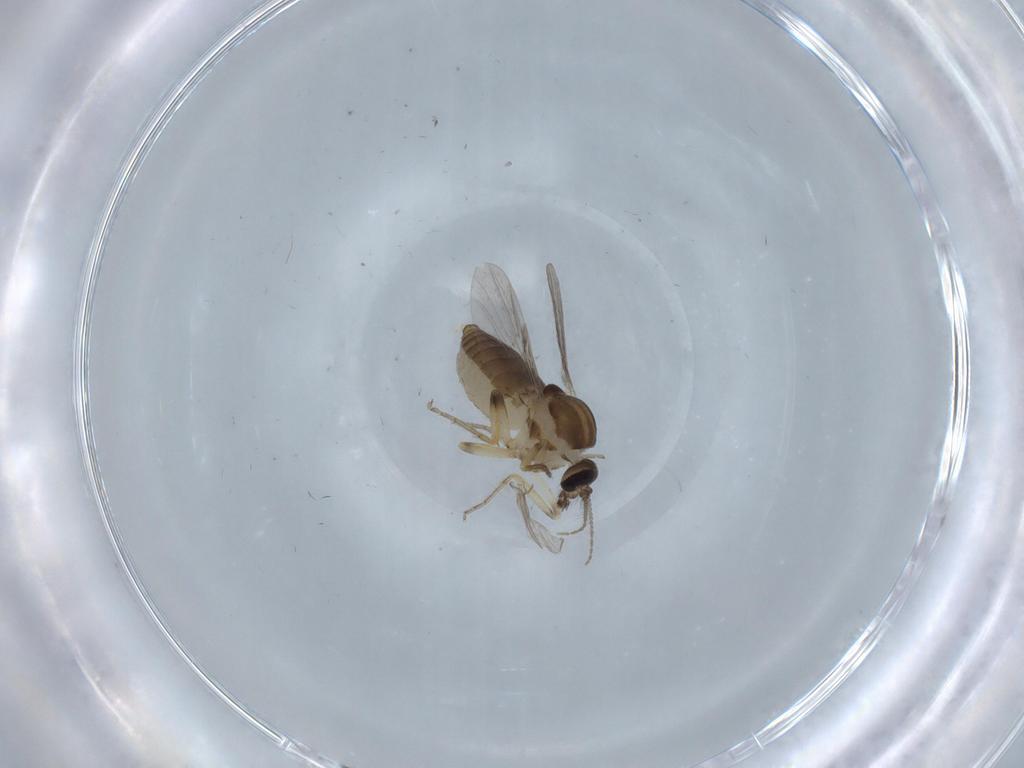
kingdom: Animalia
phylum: Arthropoda
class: Insecta
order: Diptera
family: Ceratopogonidae
